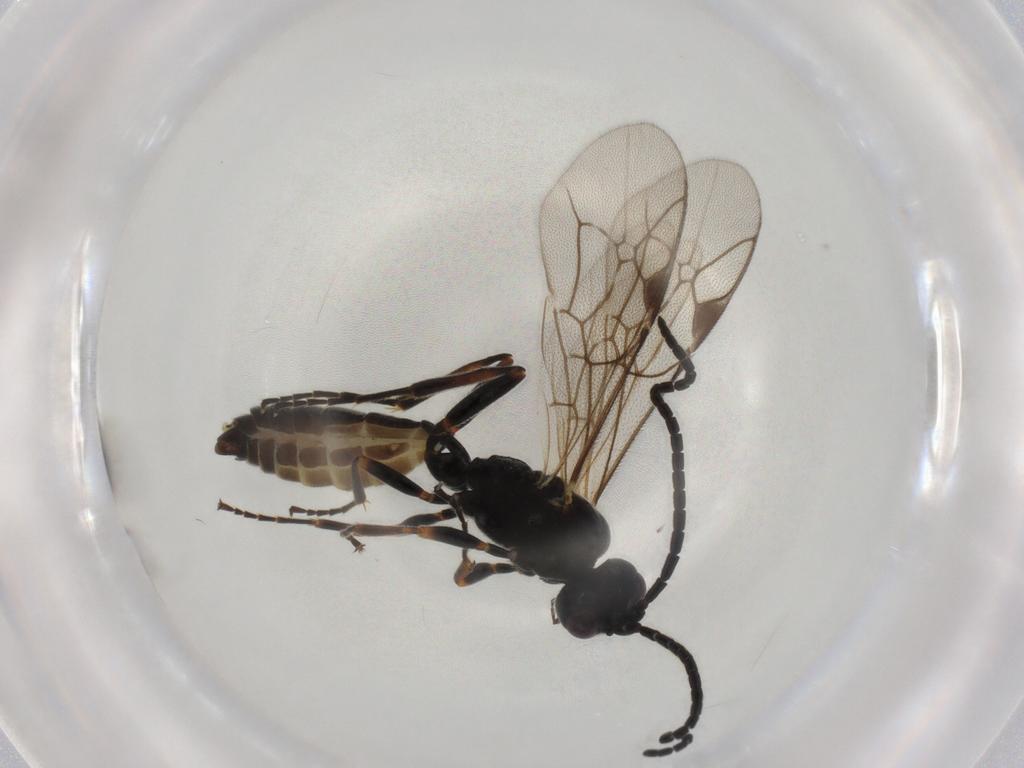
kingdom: Animalia
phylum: Arthropoda
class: Insecta
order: Hymenoptera
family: Ichneumonidae
